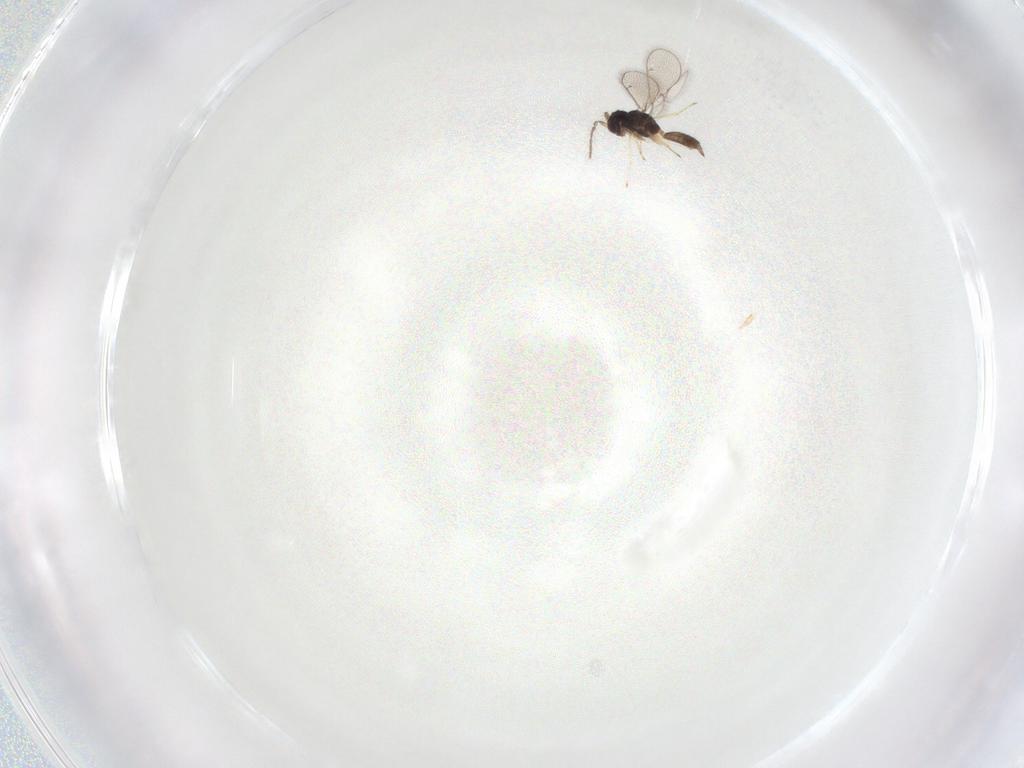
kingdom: Animalia
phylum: Arthropoda
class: Insecta
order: Hymenoptera
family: Eulophidae
